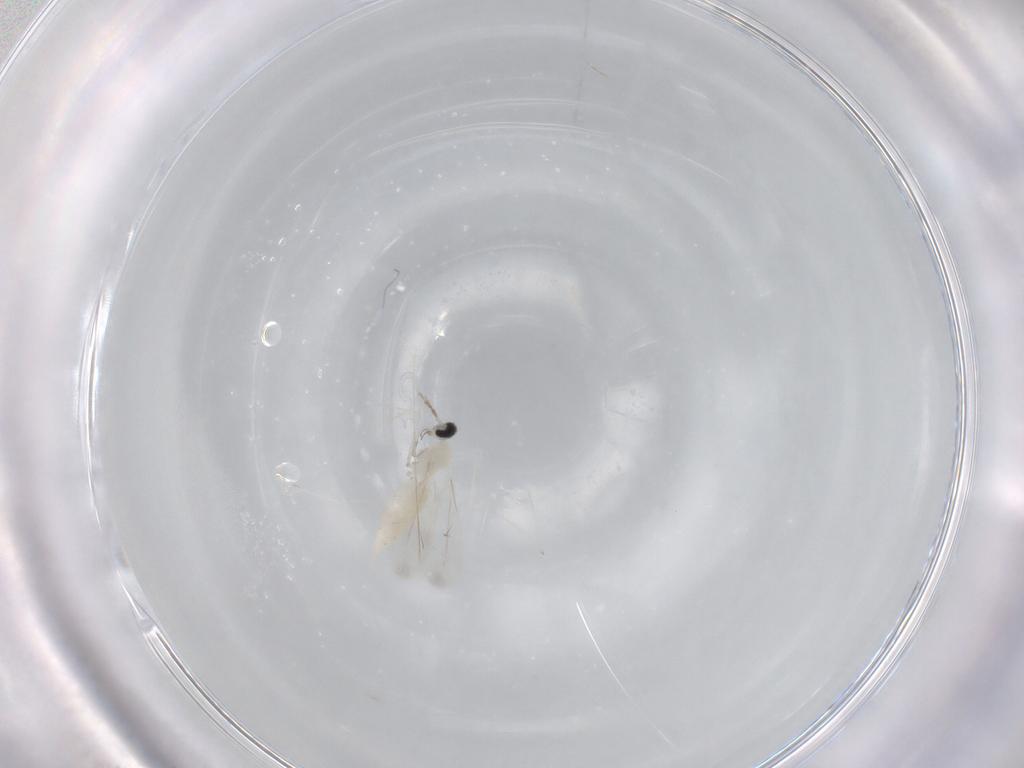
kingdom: Animalia
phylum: Arthropoda
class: Insecta
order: Diptera
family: Cecidomyiidae
